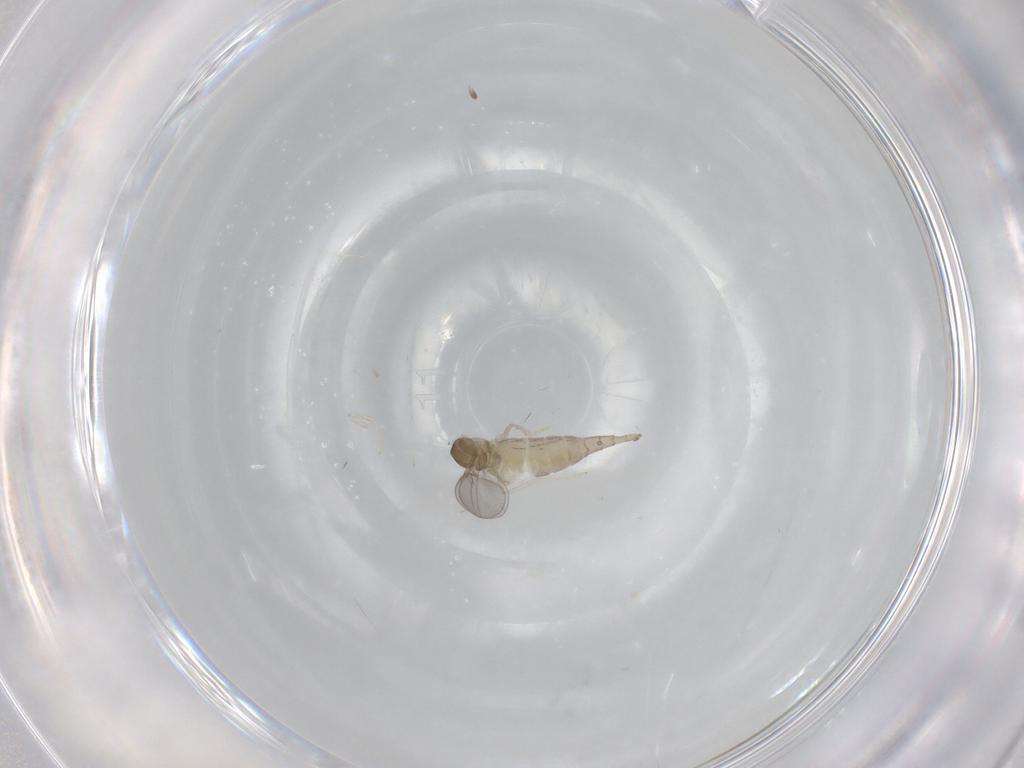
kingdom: Animalia
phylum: Arthropoda
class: Insecta
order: Diptera
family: Cecidomyiidae
